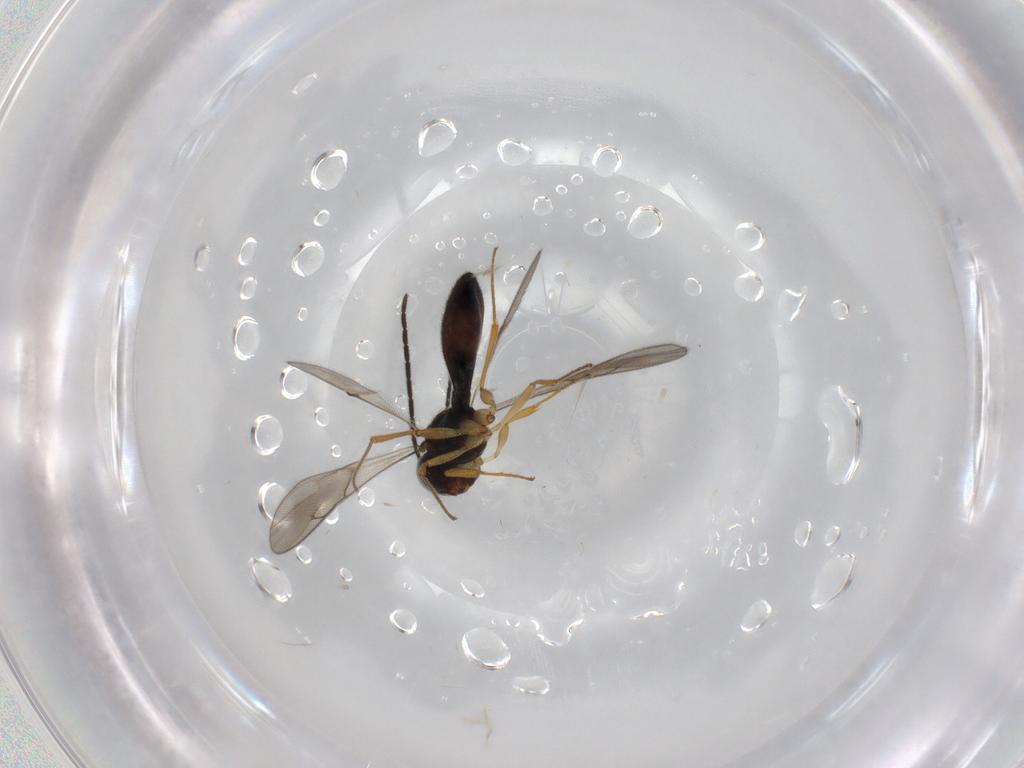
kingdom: Animalia
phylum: Arthropoda
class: Insecta
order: Hymenoptera
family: Scelionidae
